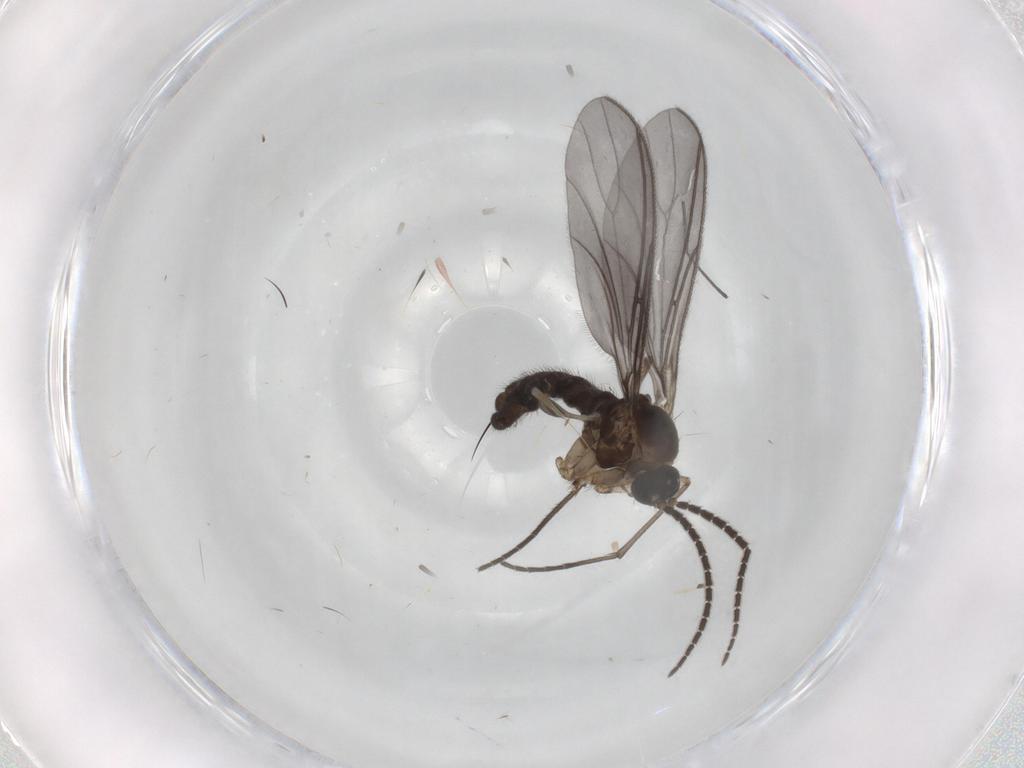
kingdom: Animalia
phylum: Arthropoda
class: Insecta
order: Diptera
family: Sciaridae
